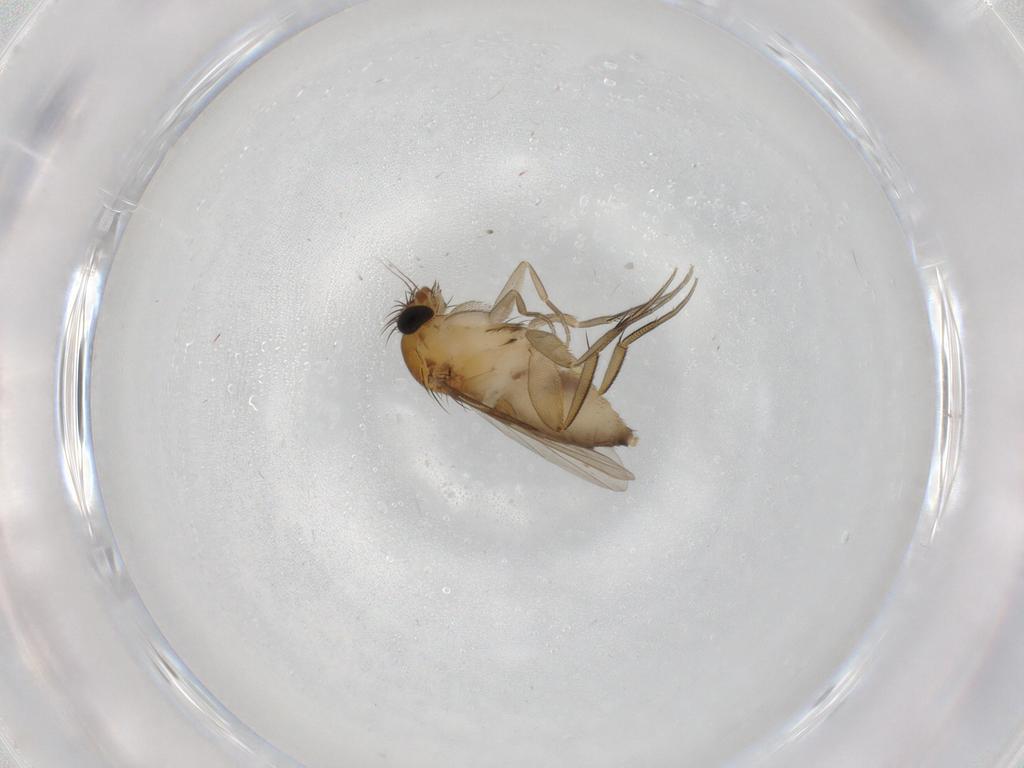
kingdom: Animalia
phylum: Arthropoda
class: Insecta
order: Diptera
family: Phoridae
